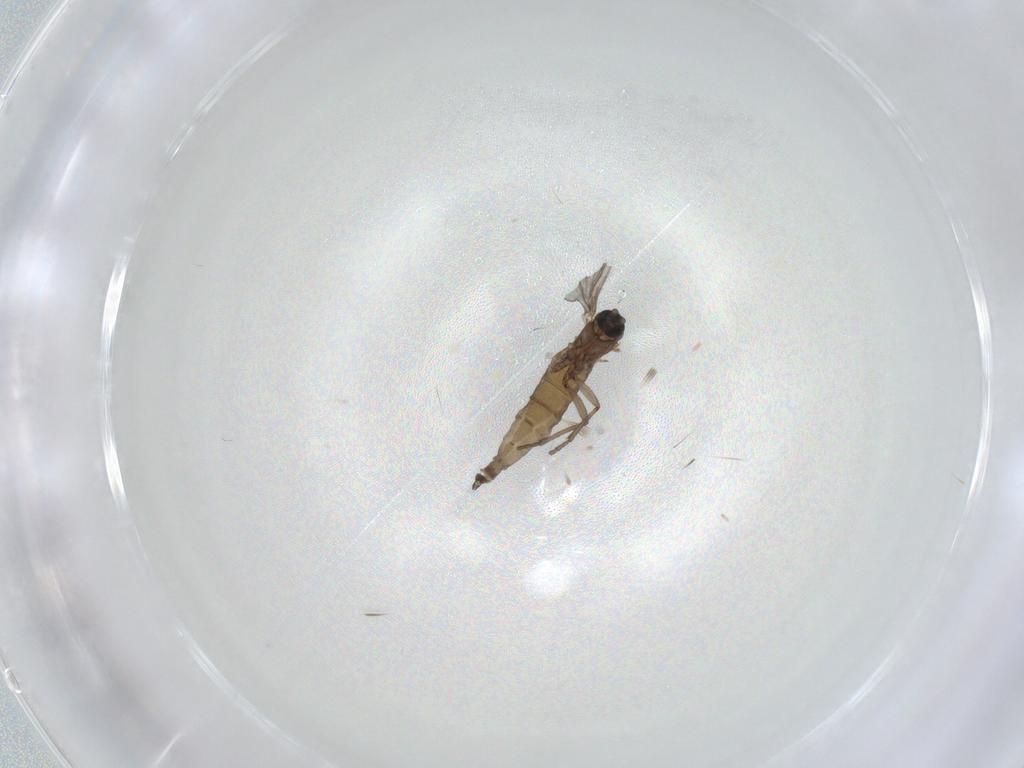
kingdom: Animalia
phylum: Arthropoda
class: Insecta
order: Diptera
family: Sciaridae
